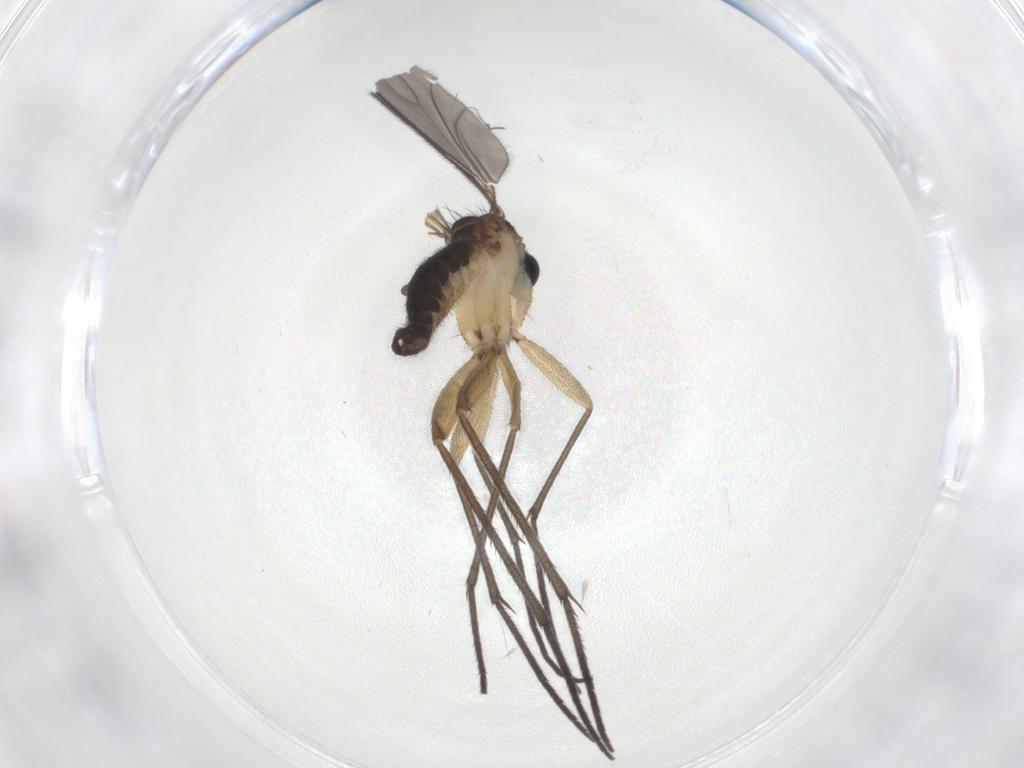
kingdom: Animalia
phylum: Arthropoda
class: Insecta
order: Diptera
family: Sciaridae
